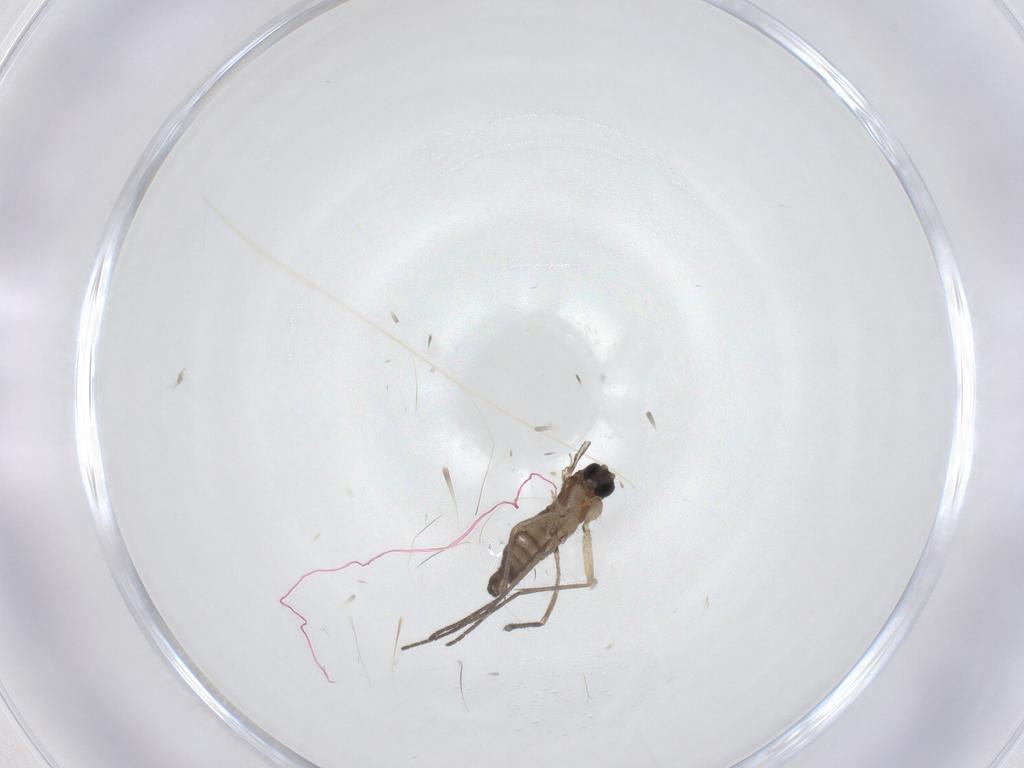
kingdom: Animalia
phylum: Arthropoda
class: Insecta
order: Diptera
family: Sciaridae
